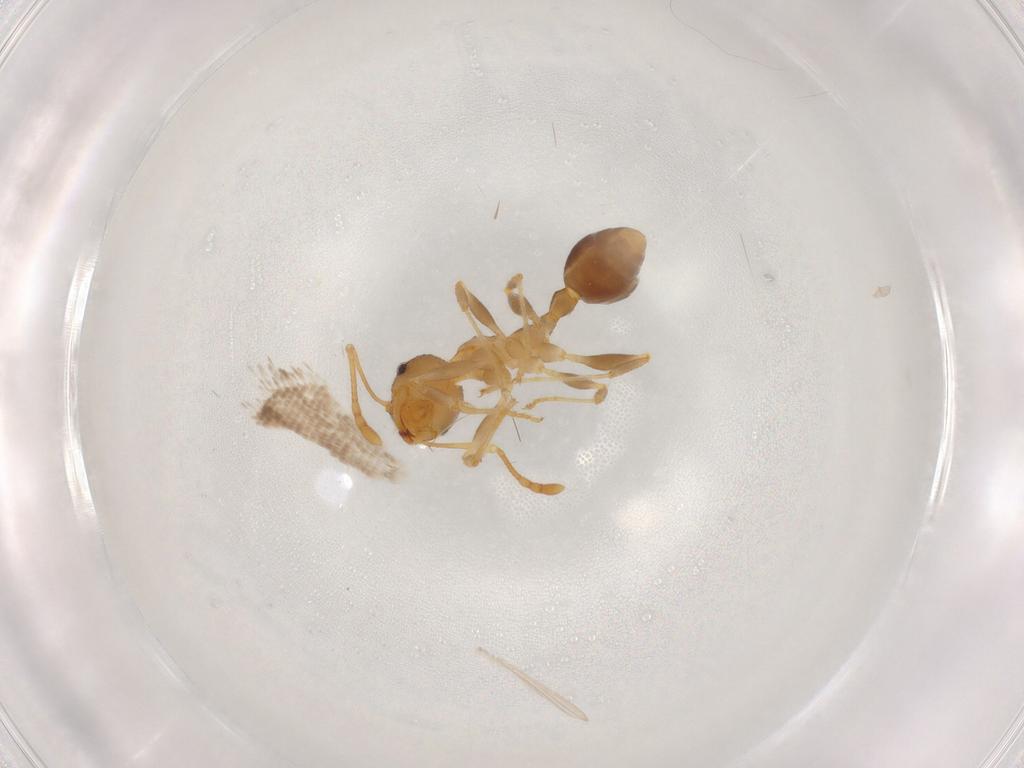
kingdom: Animalia
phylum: Arthropoda
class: Insecta
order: Hymenoptera
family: Formicidae
